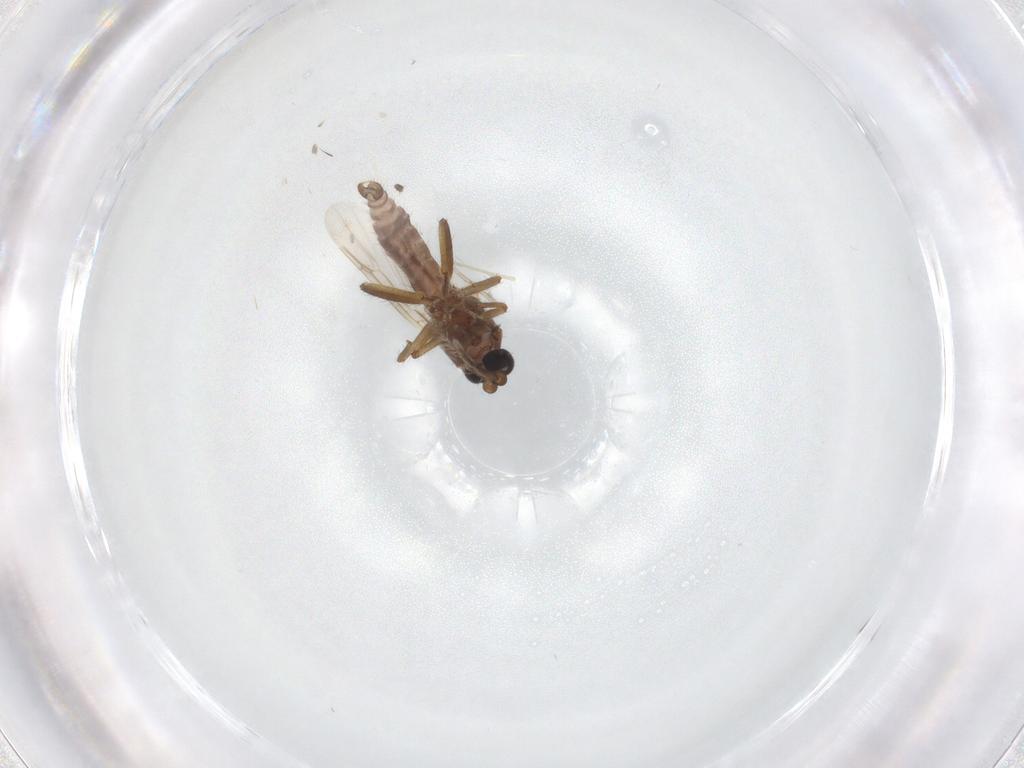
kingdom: Animalia
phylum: Arthropoda
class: Insecta
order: Diptera
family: Ceratopogonidae
